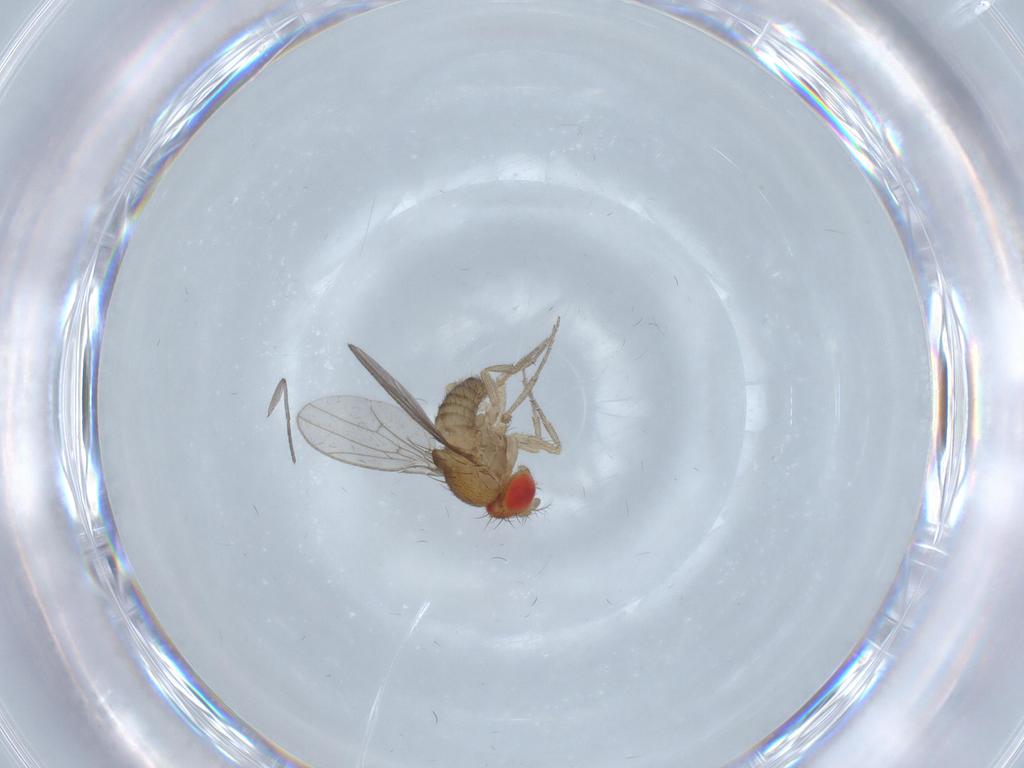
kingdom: Animalia
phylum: Arthropoda
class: Insecta
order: Diptera
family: Drosophilidae
